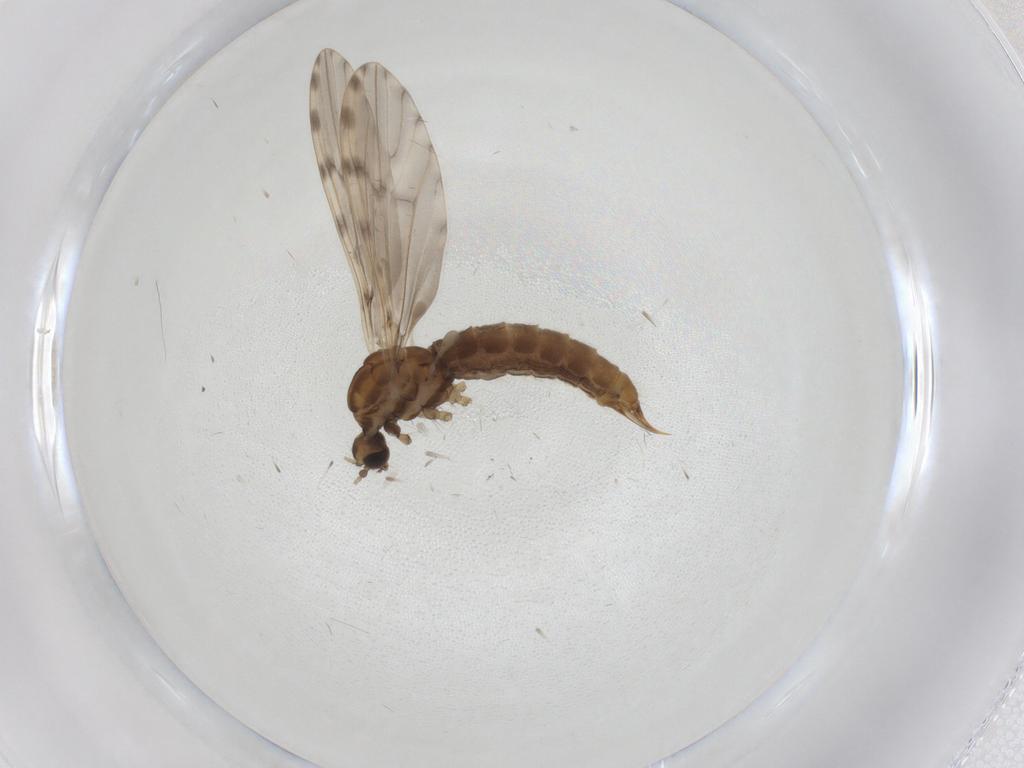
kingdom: Animalia
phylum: Arthropoda
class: Insecta
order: Diptera
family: Limoniidae
